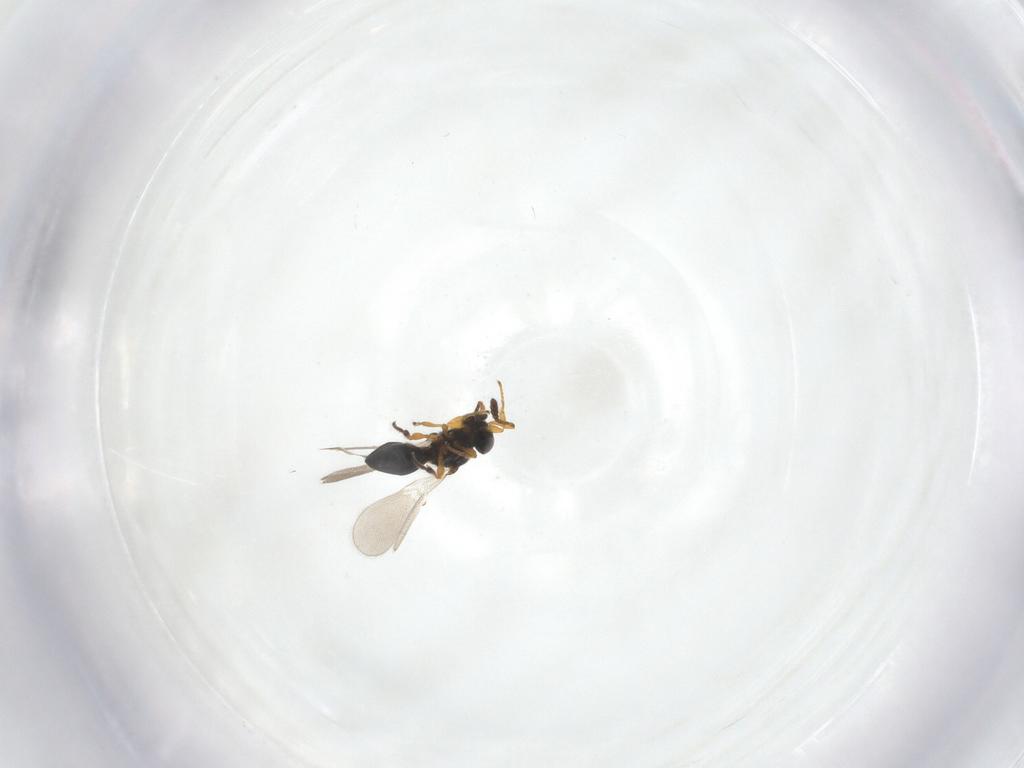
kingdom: Animalia
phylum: Arthropoda
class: Insecta
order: Hymenoptera
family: Platygastridae
